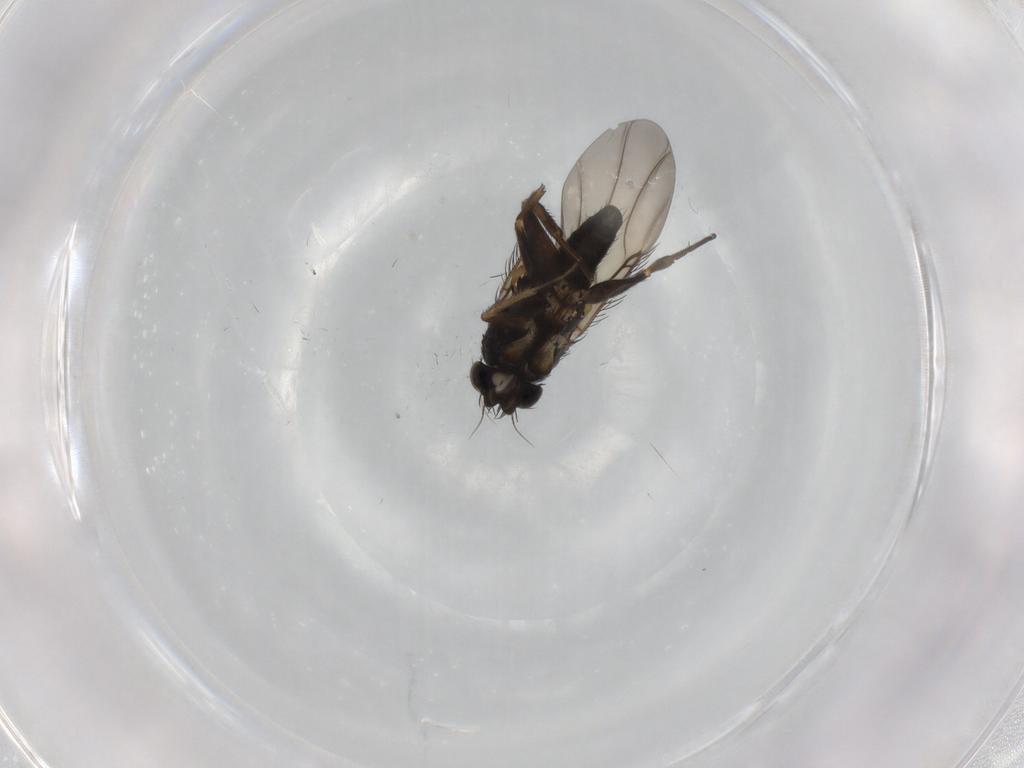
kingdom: Animalia
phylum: Arthropoda
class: Insecta
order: Diptera
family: Phoridae
